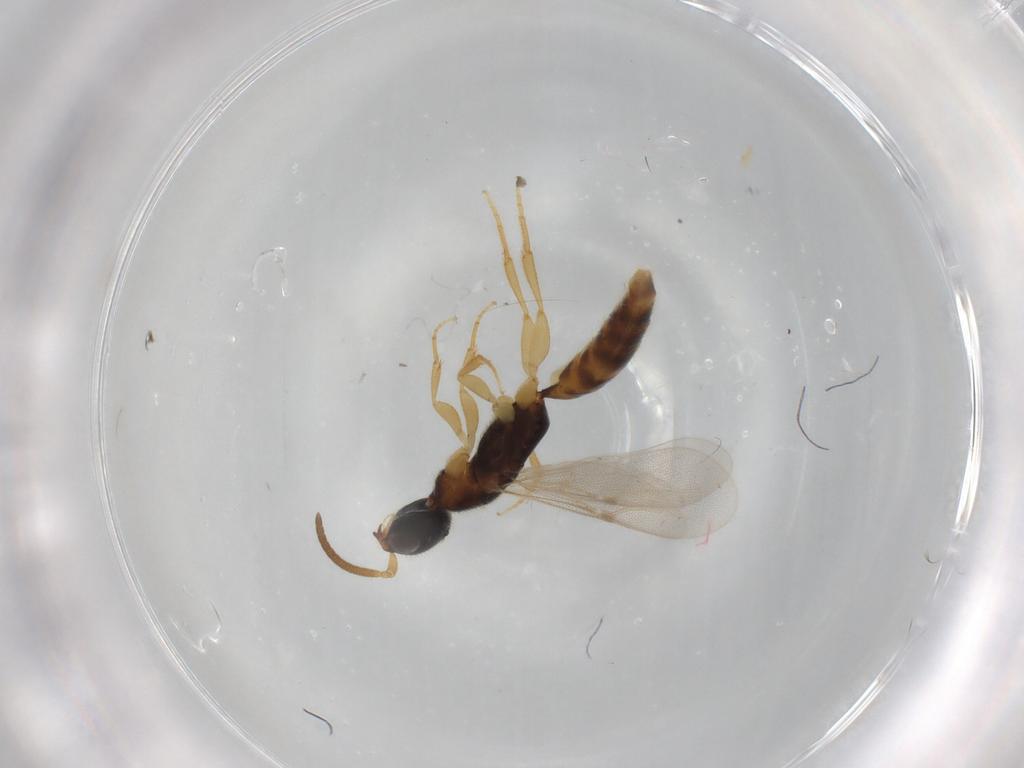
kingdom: Animalia
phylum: Arthropoda
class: Insecta
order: Hymenoptera
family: Bethylidae
